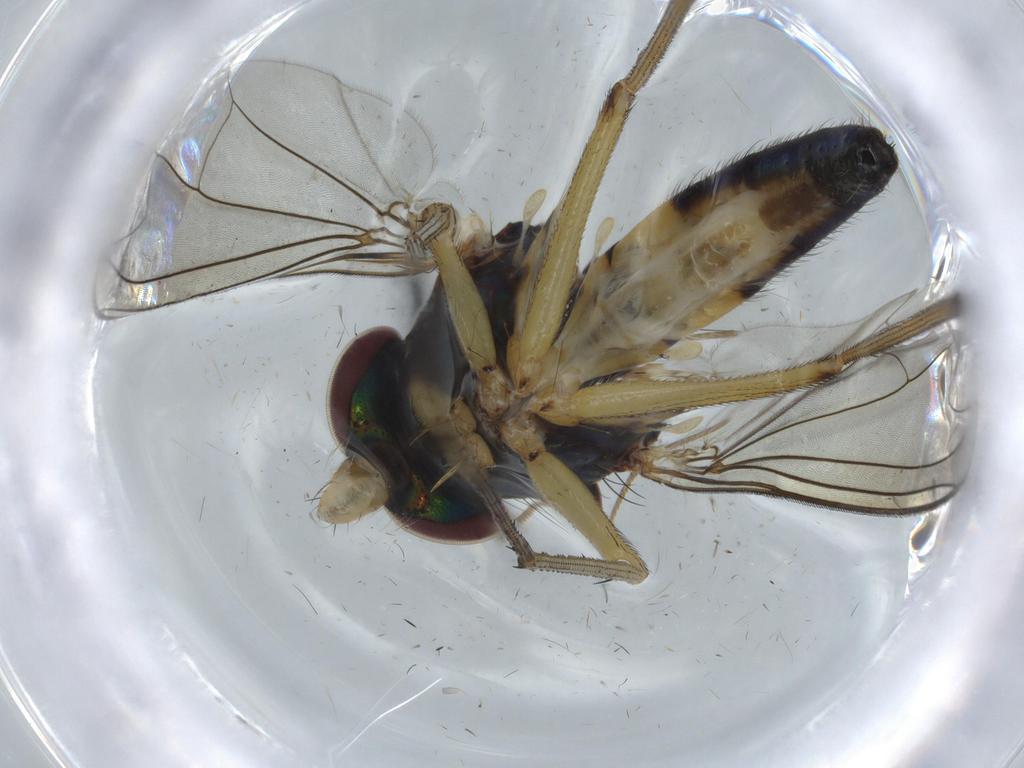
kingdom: Animalia
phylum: Arthropoda
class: Insecta
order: Diptera
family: Dolichopodidae
